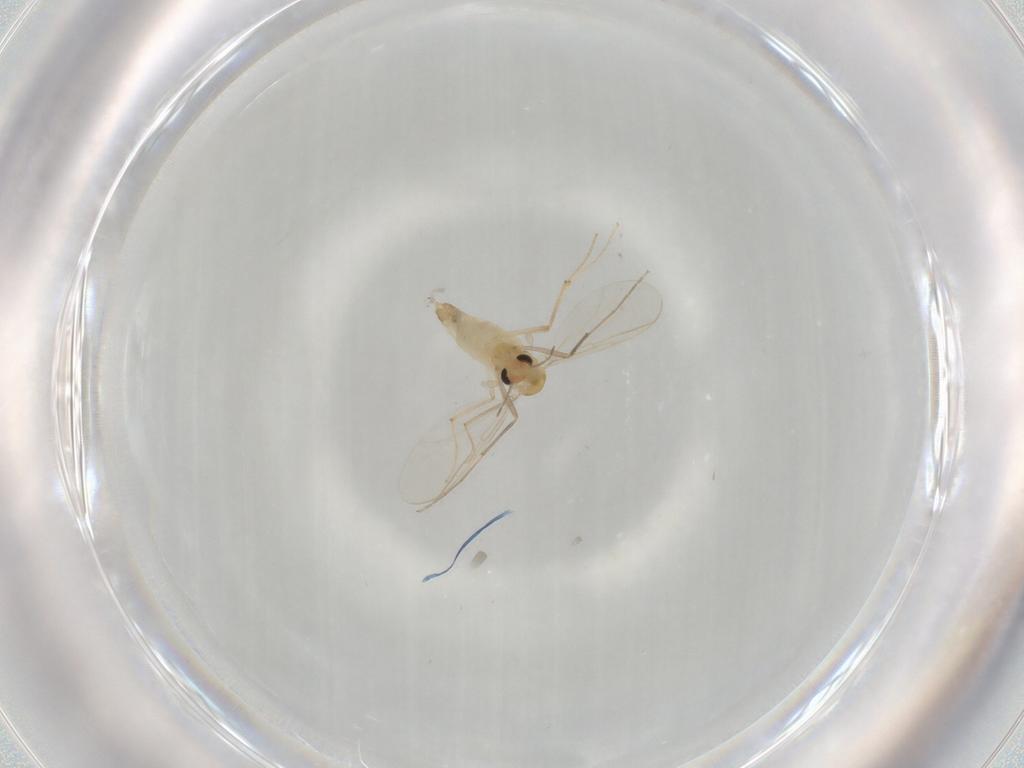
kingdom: Animalia
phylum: Arthropoda
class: Insecta
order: Diptera
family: Chironomidae
